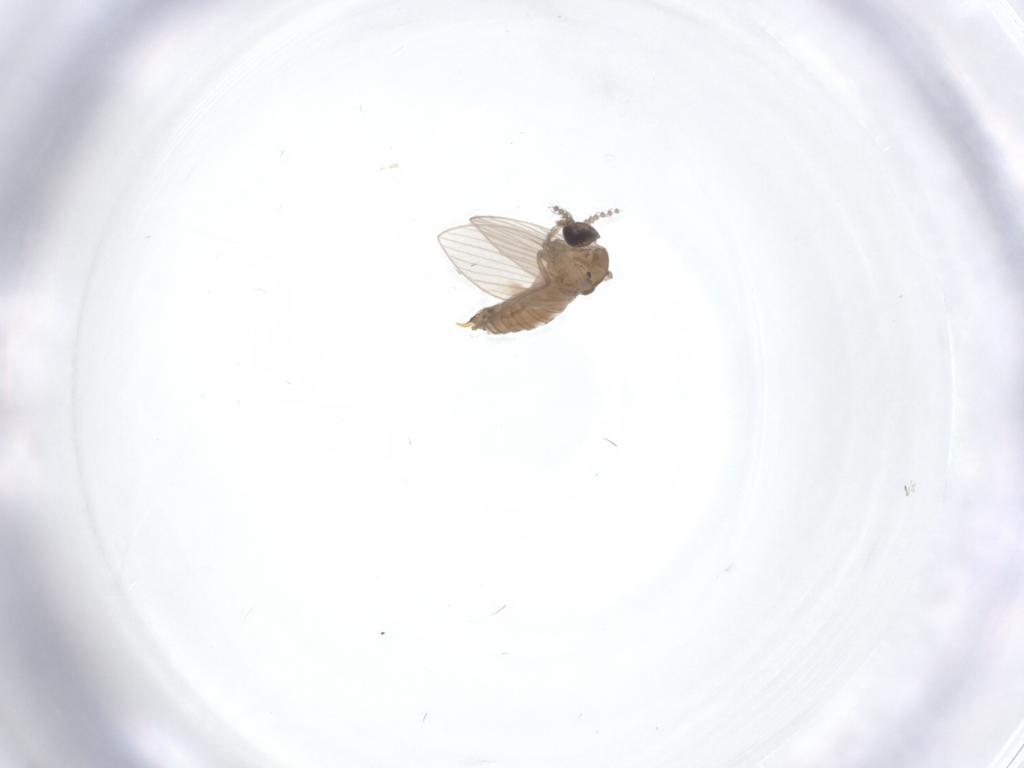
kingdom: Animalia
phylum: Arthropoda
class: Insecta
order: Diptera
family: Psychodidae
